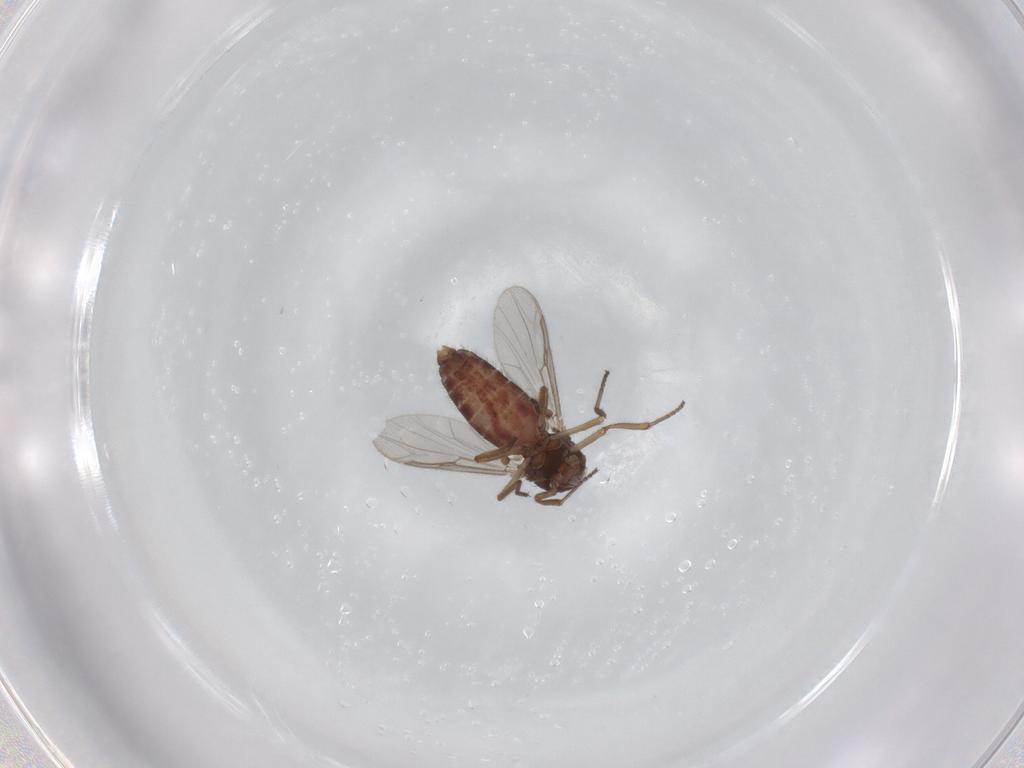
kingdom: Animalia
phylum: Arthropoda
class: Insecta
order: Diptera
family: Ceratopogonidae
